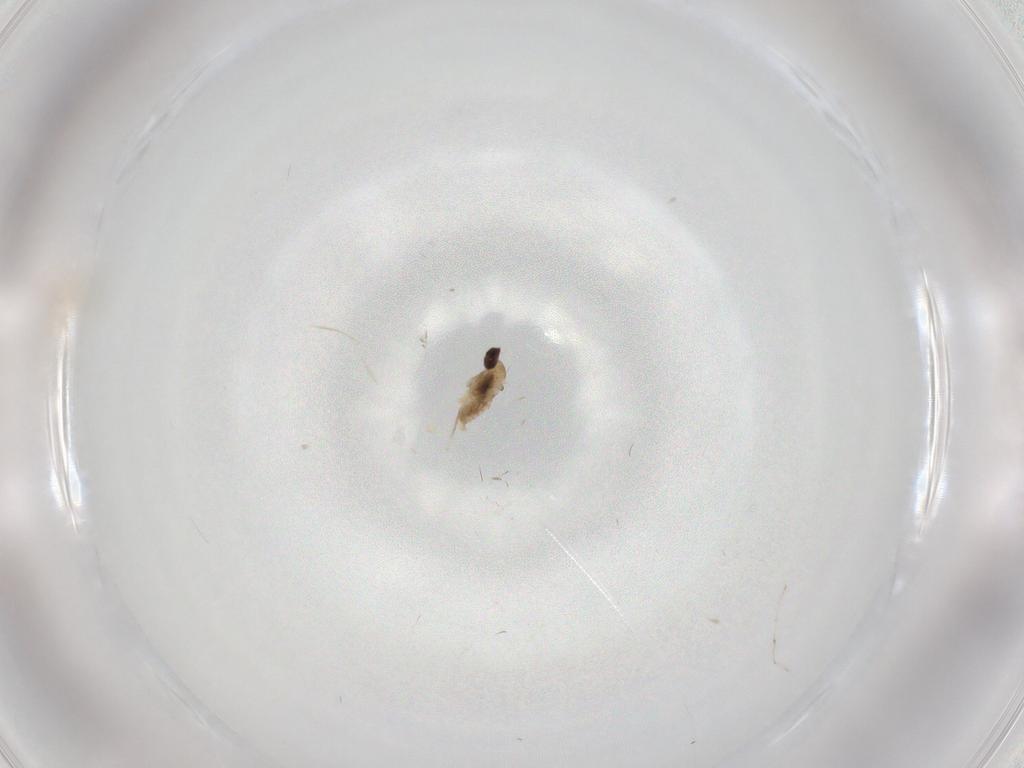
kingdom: Animalia
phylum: Arthropoda
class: Insecta
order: Diptera
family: Cecidomyiidae
